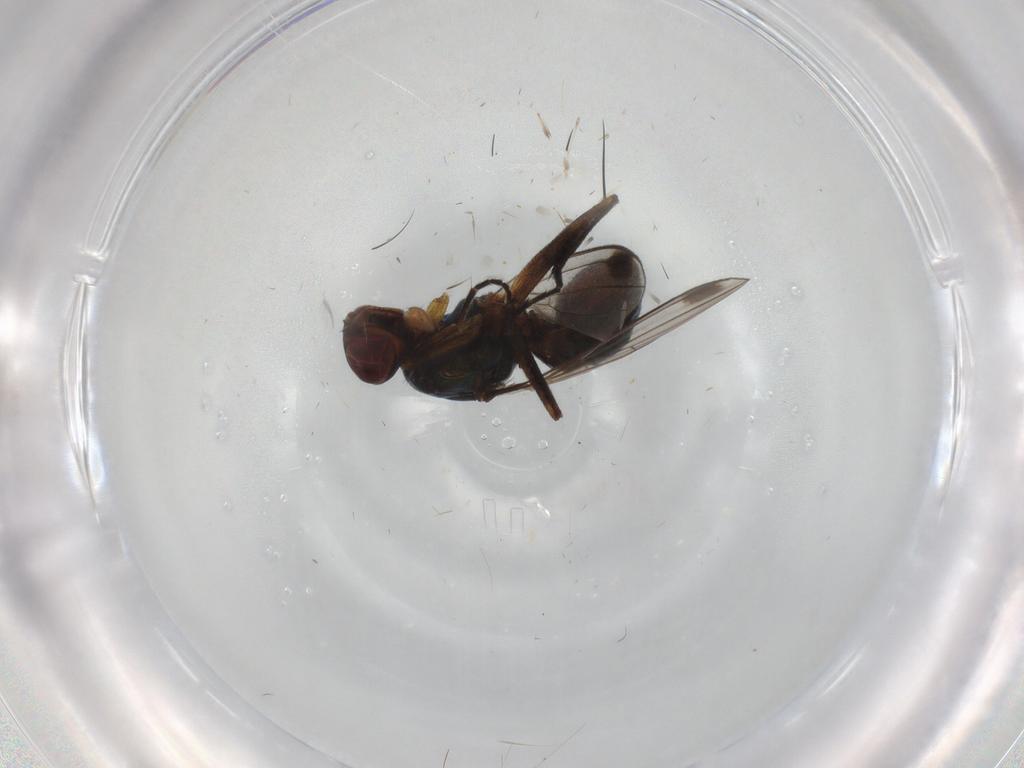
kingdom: Animalia
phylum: Arthropoda
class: Insecta
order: Diptera
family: Sepsidae
